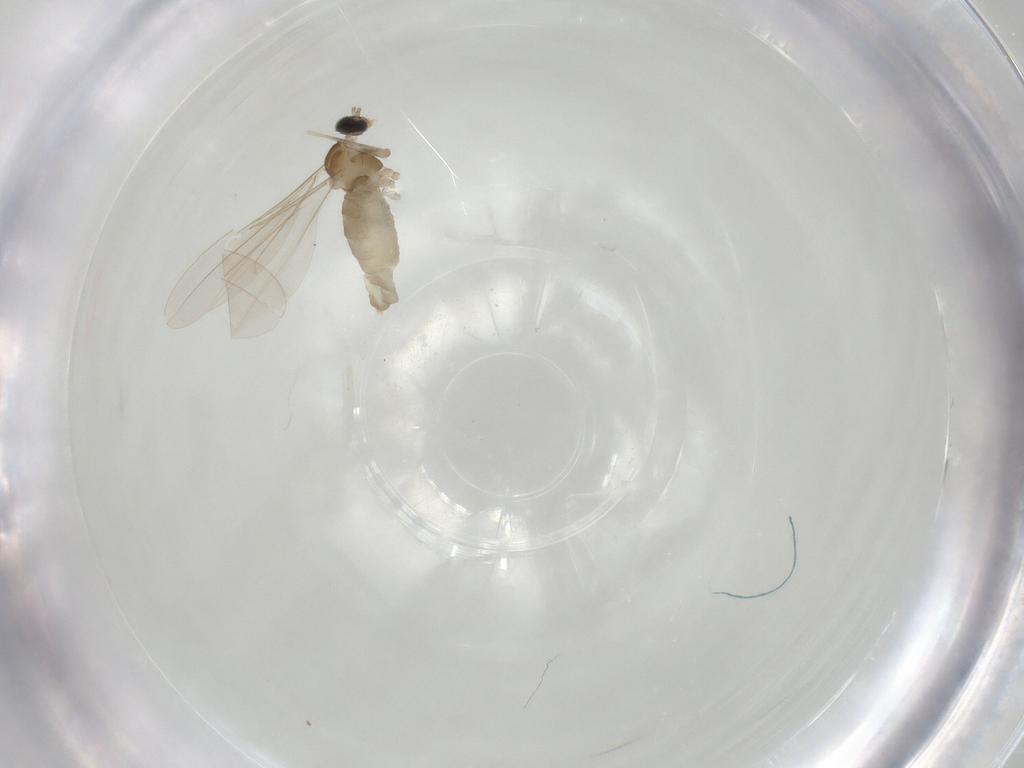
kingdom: Animalia
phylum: Arthropoda
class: Insecta
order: Diptera
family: Cecidomyiidae
